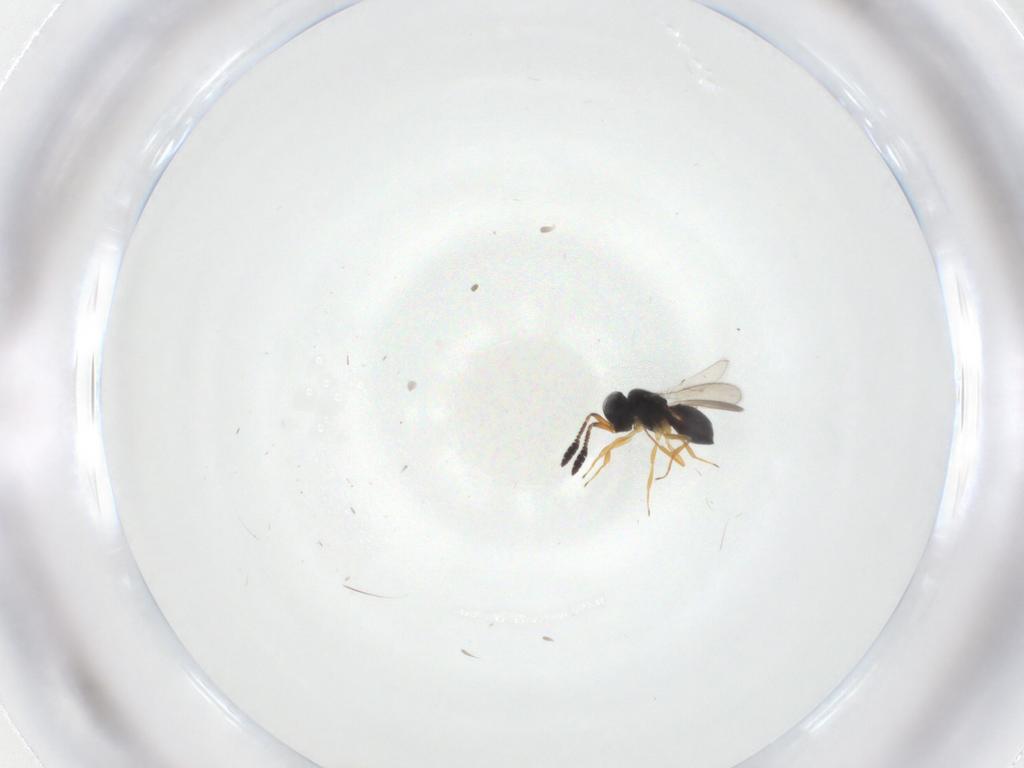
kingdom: Animalia
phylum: Arthropoda
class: Insecta
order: Hymenoptera
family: Scelionidae
